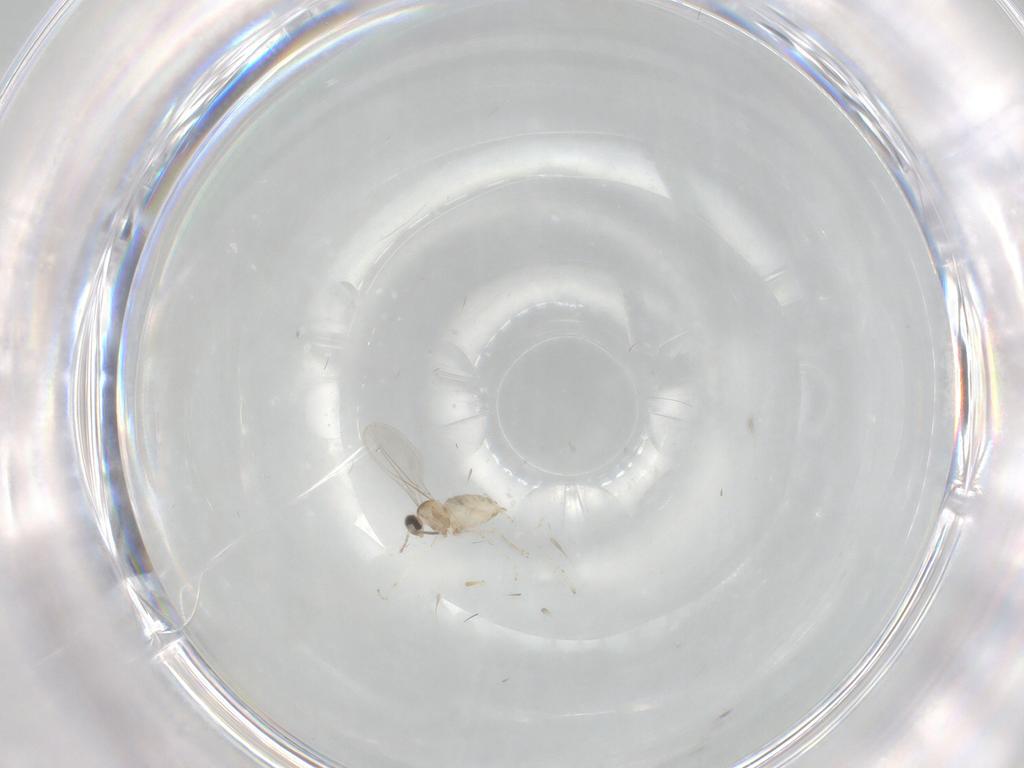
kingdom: Animalia
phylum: Arthropoda
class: Insecta
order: Diptera
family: Cecidomyiidae
